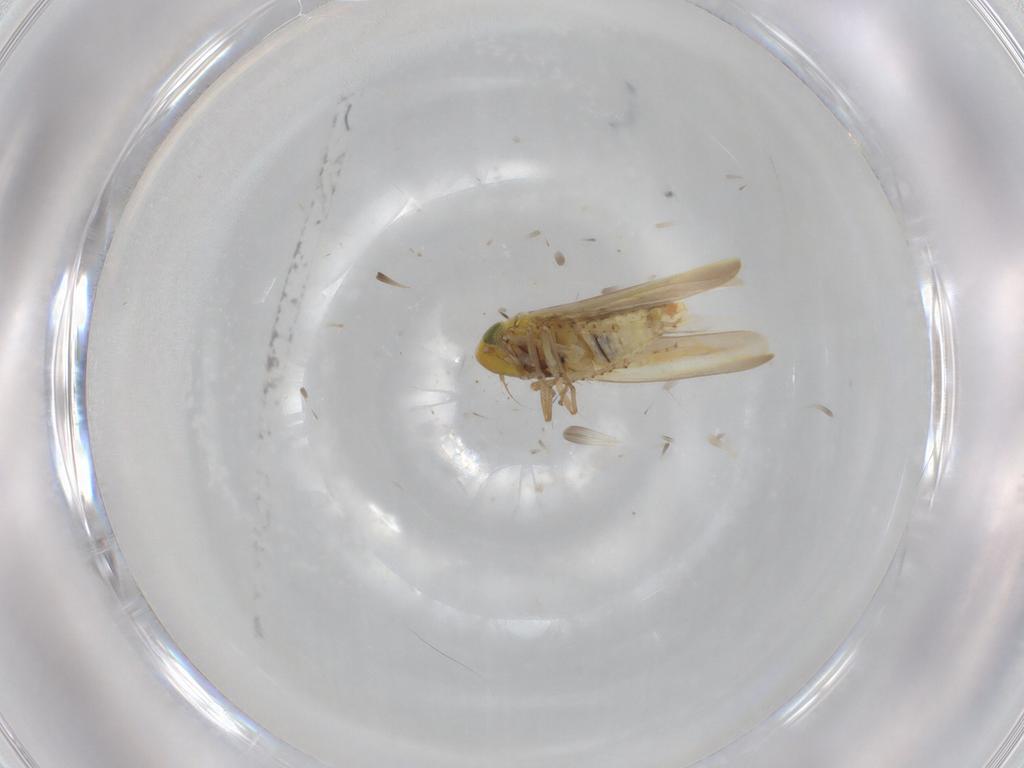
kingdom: Animalia
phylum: Arthropoda
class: Insecta
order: Hemiptera
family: Cicadellidae
